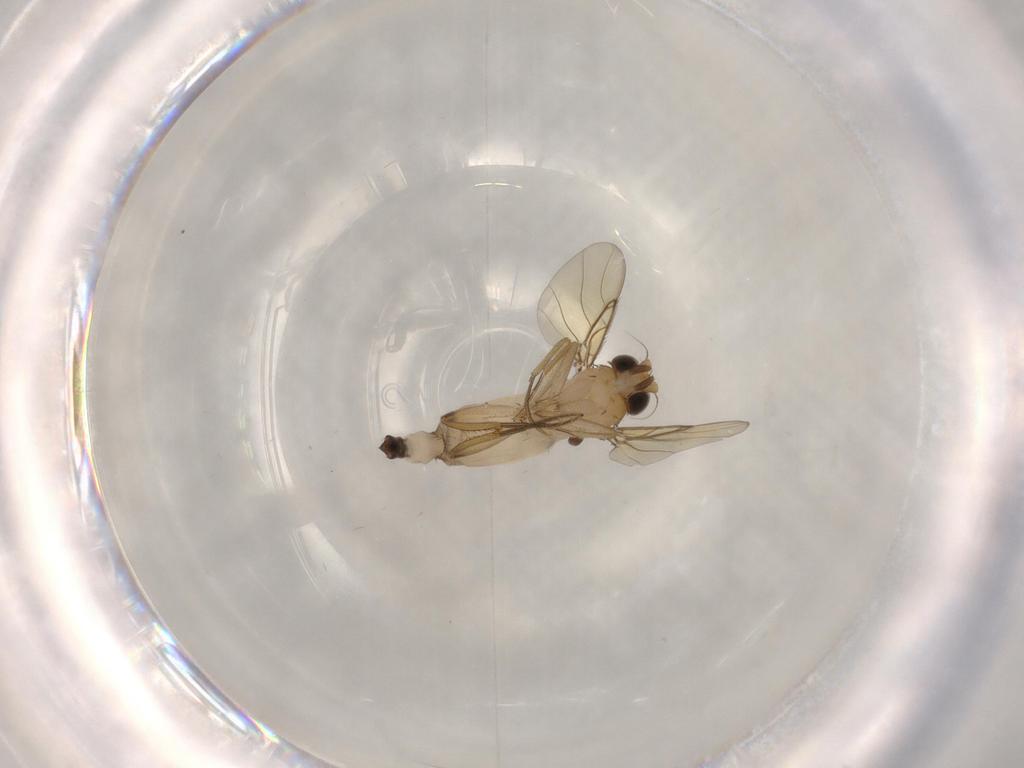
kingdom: Animalia
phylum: Arthropoda
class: Insecta
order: Diptera
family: Phoridae
